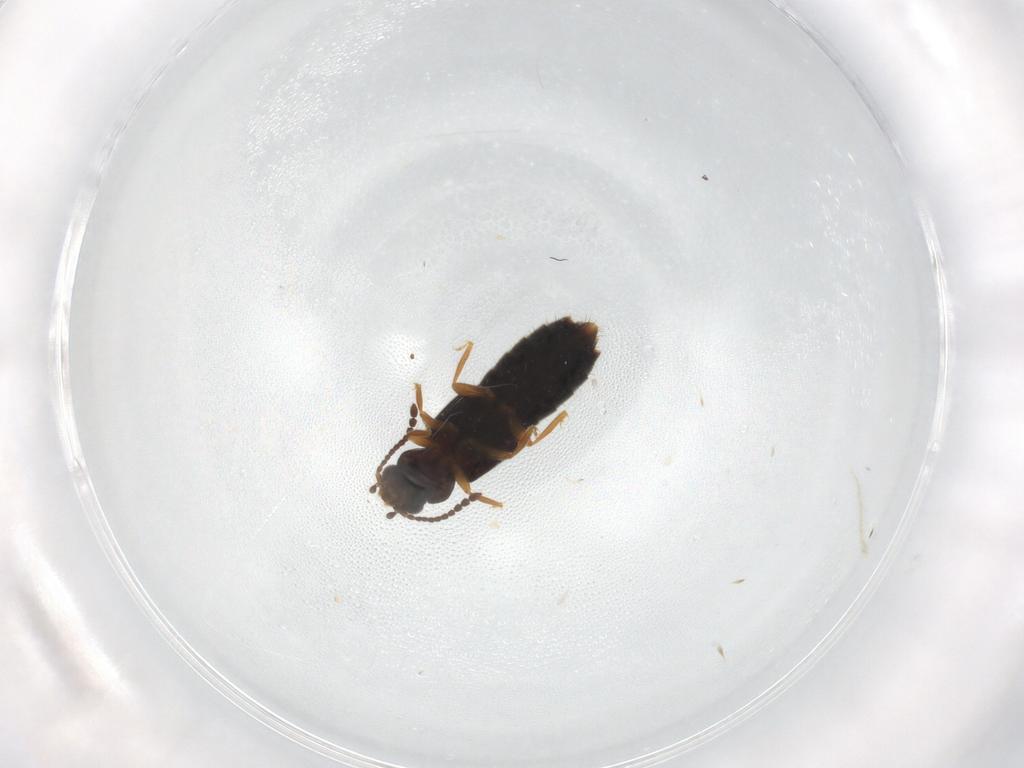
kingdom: Animalia
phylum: Arthropoda
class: Insecta
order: Coleoptera
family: Staphylinidae
